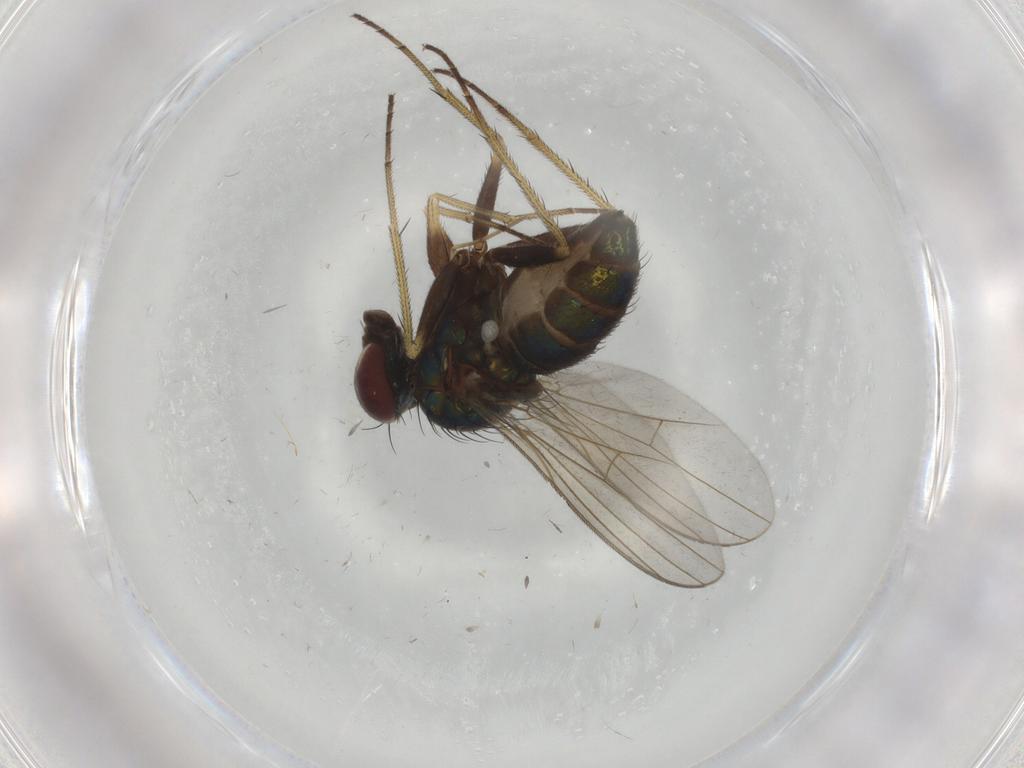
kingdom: Animalia
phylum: Arthropoda
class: Insecta
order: Diptera
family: Dolichopodidae
